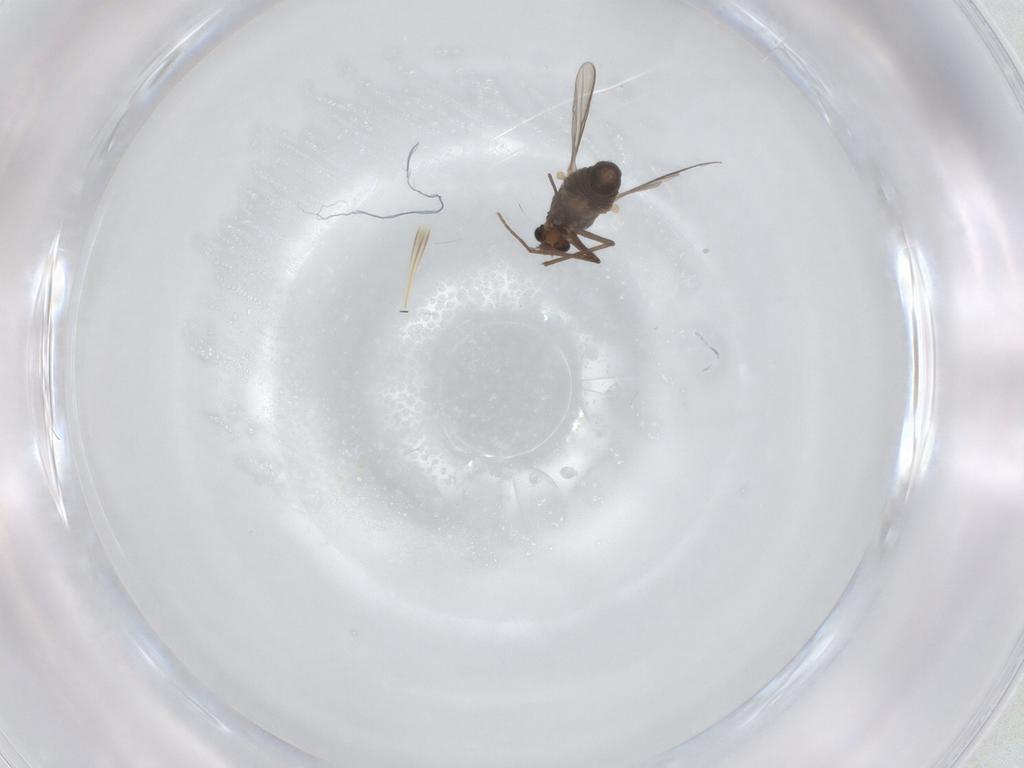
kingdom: Animalia
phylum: Arthropoda
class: Insecta
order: Diptera
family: Chironomidae
